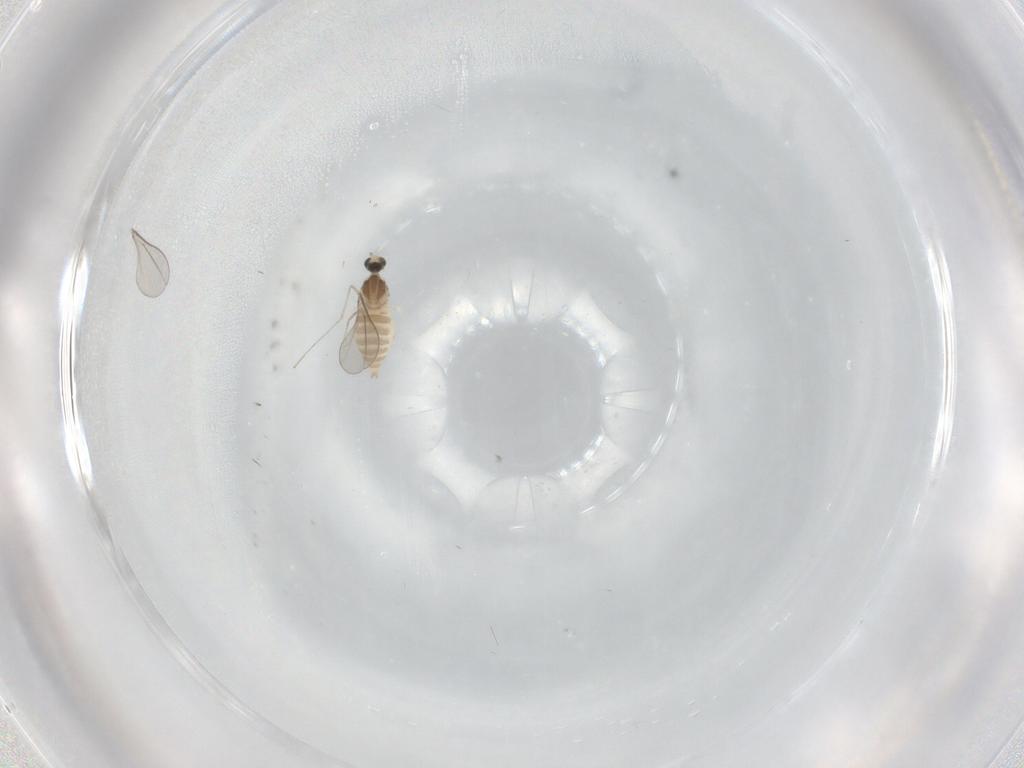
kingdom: Animalia
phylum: Arthropoda
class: Insecta
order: Diptera
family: Cecidomyiidae
